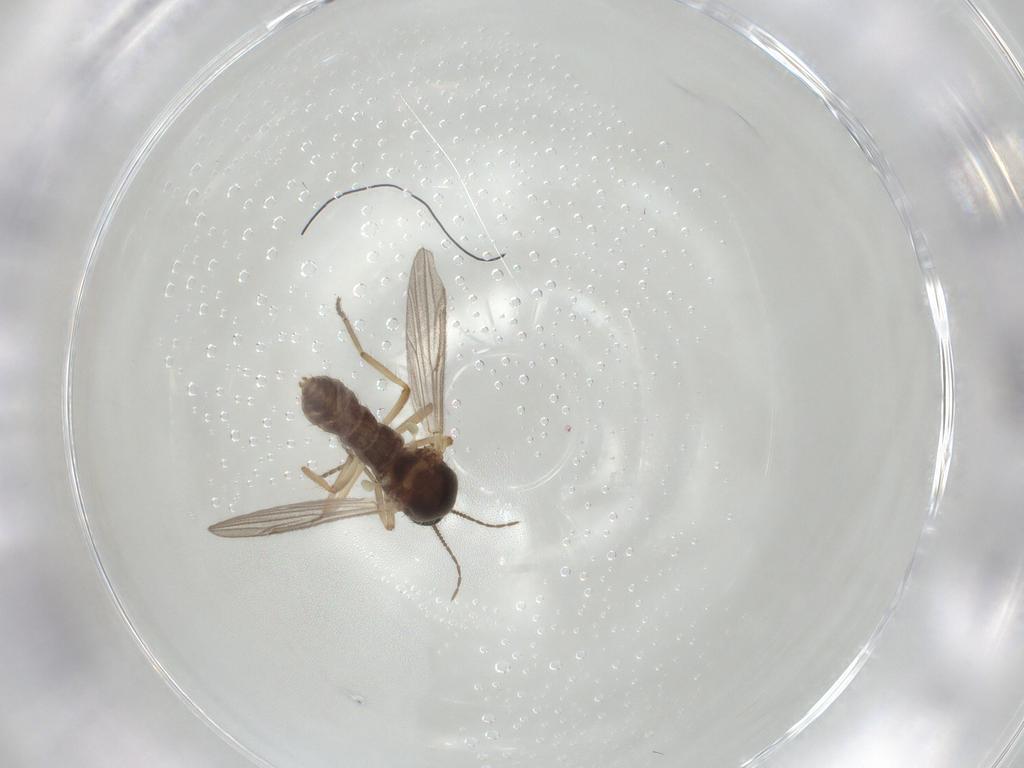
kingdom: Animalia
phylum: Arthropoda
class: Insecta
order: Diptera
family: Ceratopogonidae
